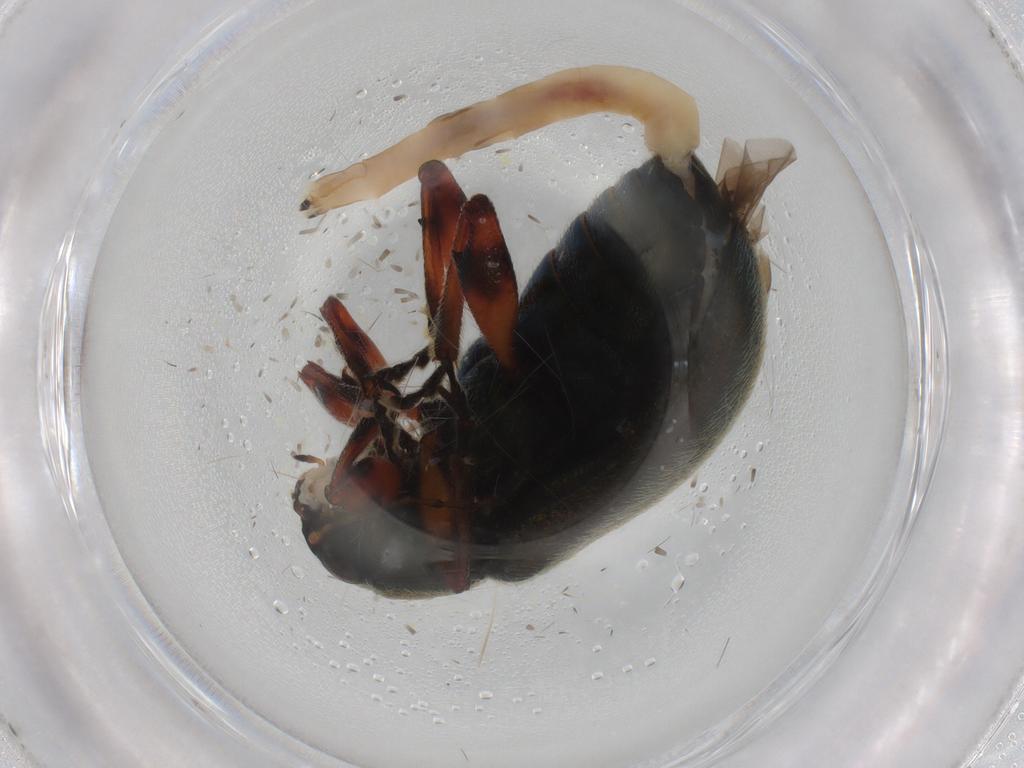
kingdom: Animalia
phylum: Arthropoda
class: Insecta
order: Coleoptera
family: Chrysomelidae
